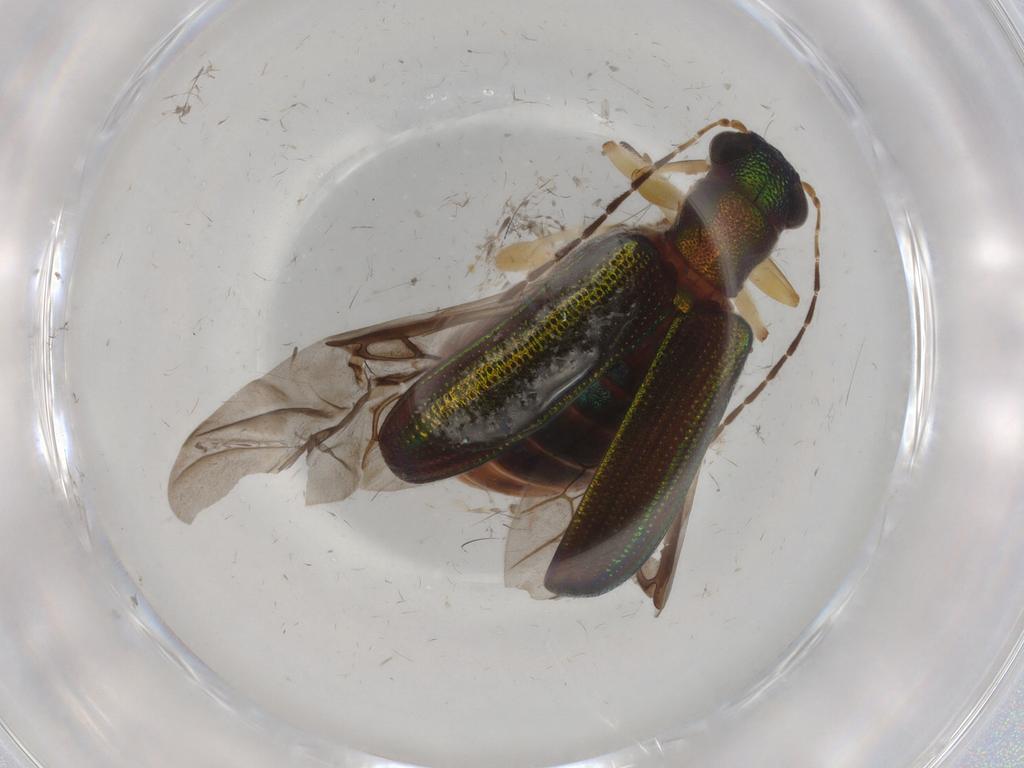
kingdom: Animalia
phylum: Arthropoda
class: Insecta
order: Coleoptera
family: Chrysomelidae
